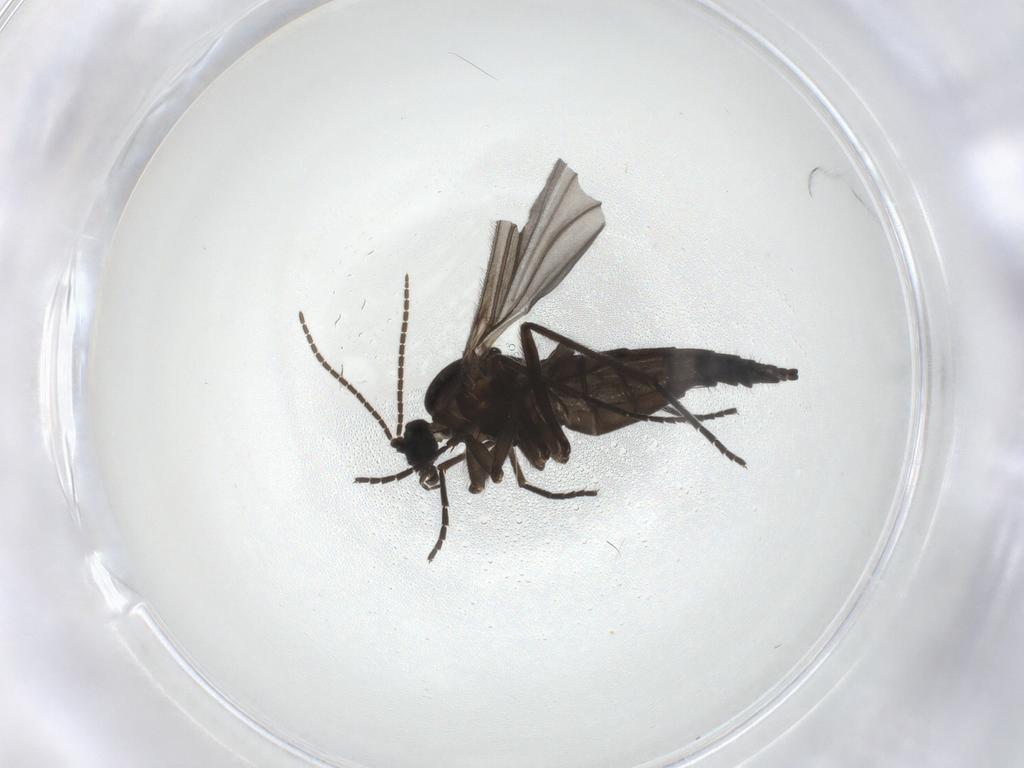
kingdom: Animalia
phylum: Arthropoda
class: Insecta
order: Diptera
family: Sciaridae
